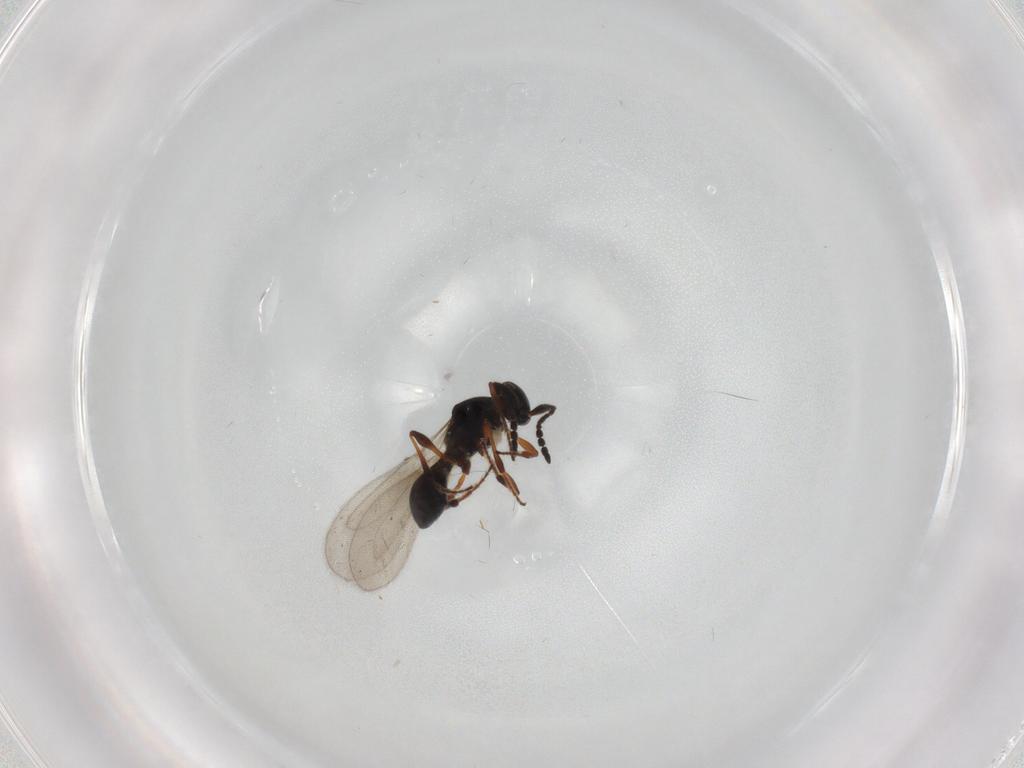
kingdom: Animalia
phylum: Arthropoda
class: Insecta
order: Hymenoptera
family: Platygastridae
